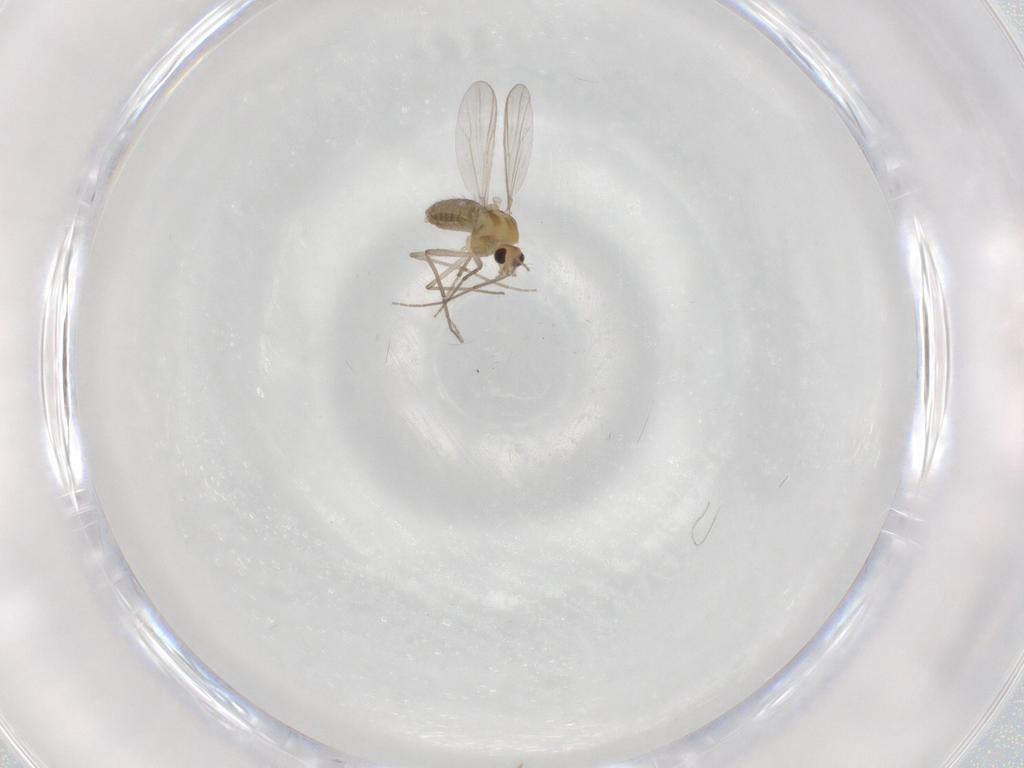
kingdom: Animalia
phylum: Arthropoda
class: Insecta
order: Diptera
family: Chironomidae
